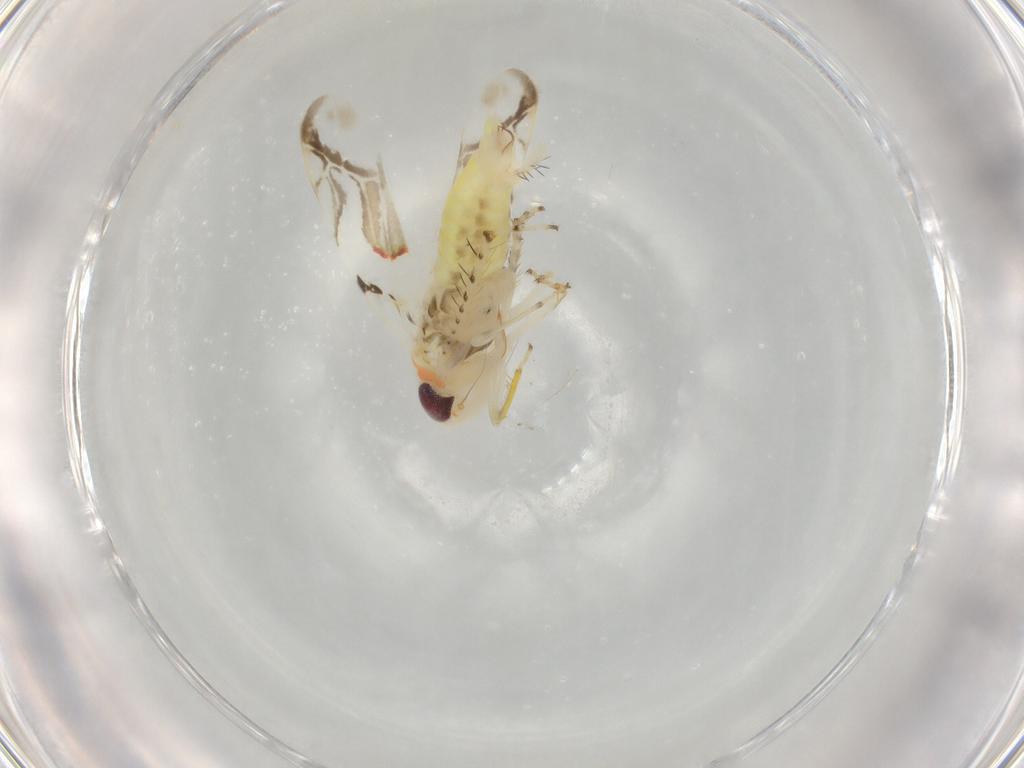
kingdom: Animalia
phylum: Arthropoda
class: Insecta
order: Hemiptera
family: Cicadellidae
